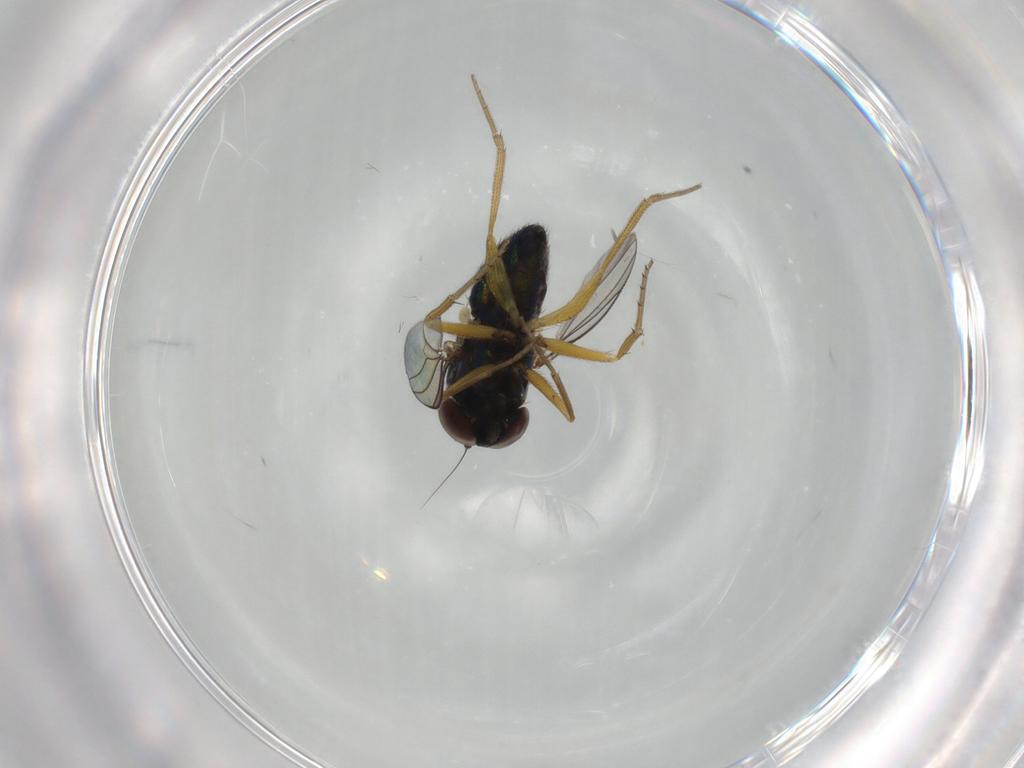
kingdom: Animalia
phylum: Arthropoda
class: Insecta
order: Diptera
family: Dolichopodidae
